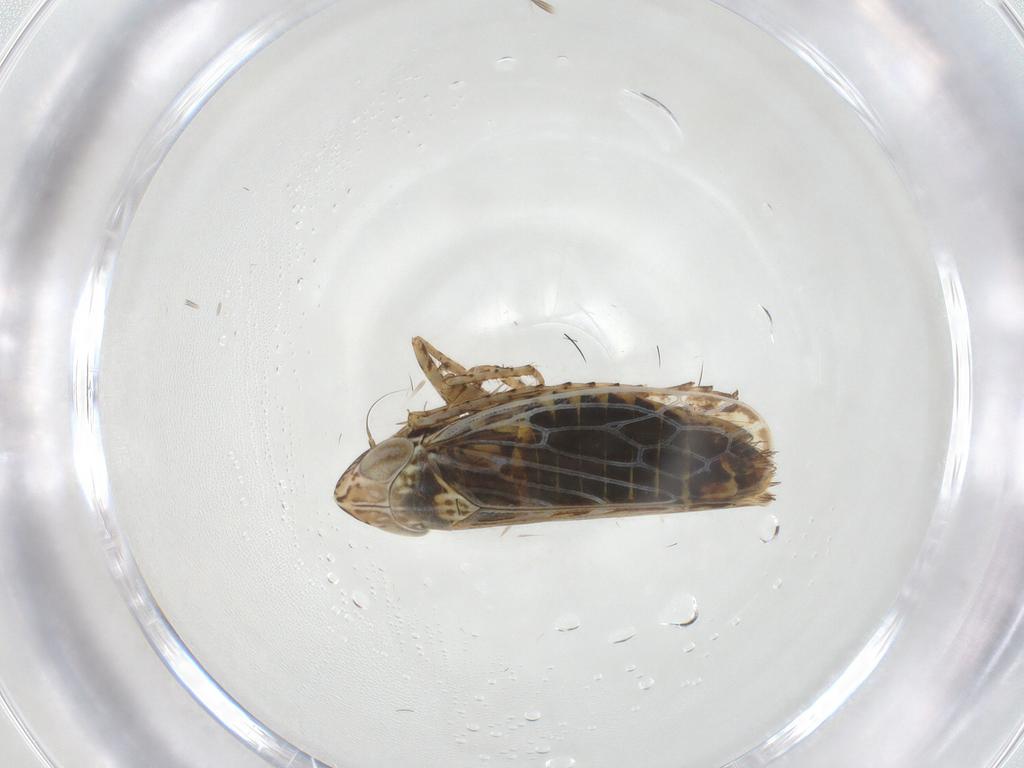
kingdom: Animalia
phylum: Arthropoda
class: Insecta
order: Hemiptera
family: Cicadellidae
